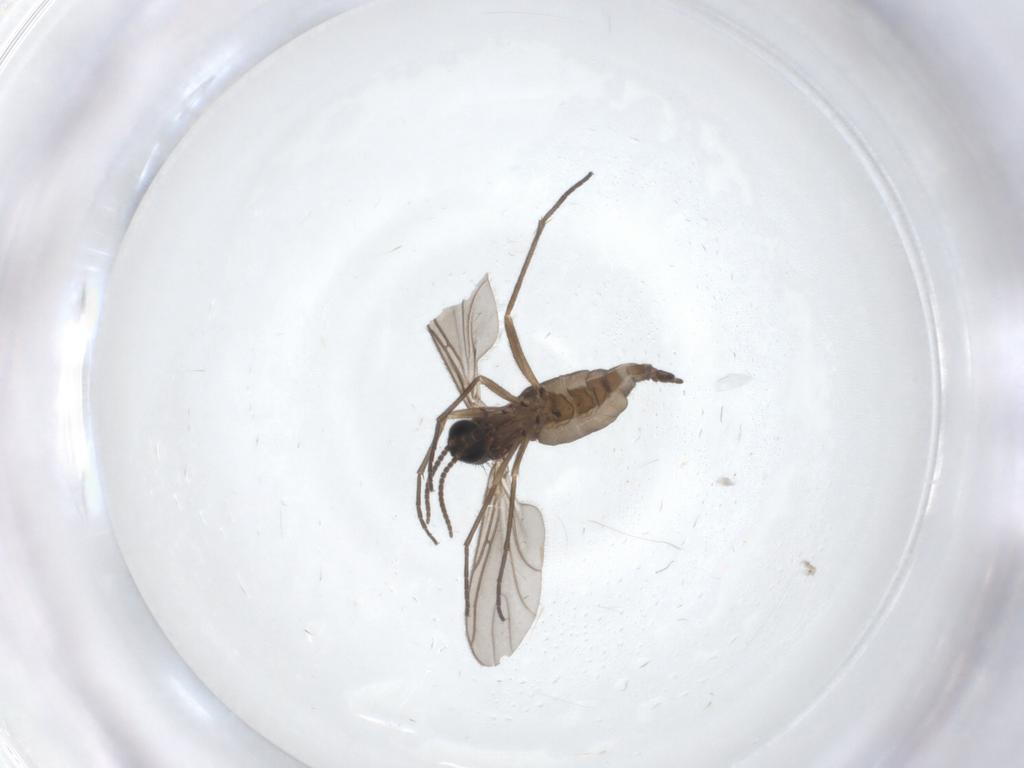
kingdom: Animalia
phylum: Arthropoda
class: Insecta
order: Diptera
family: Sciaridae
